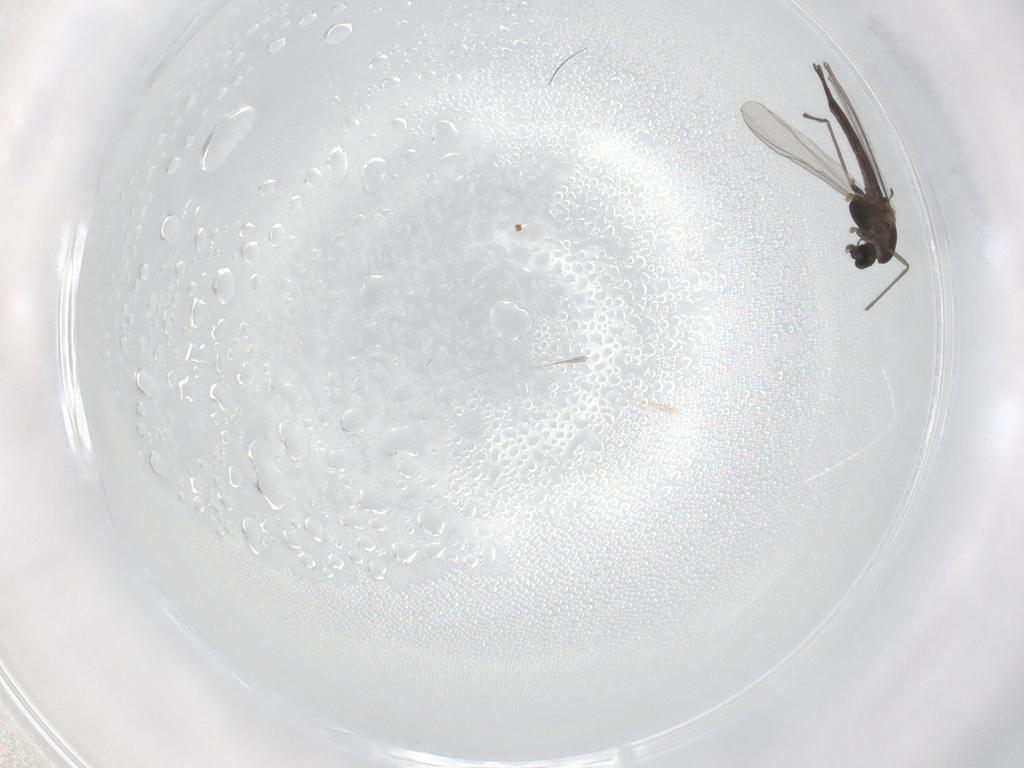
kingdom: Animalia
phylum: Arthropoda
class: Insecta
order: Diptera
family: Chironomidae
